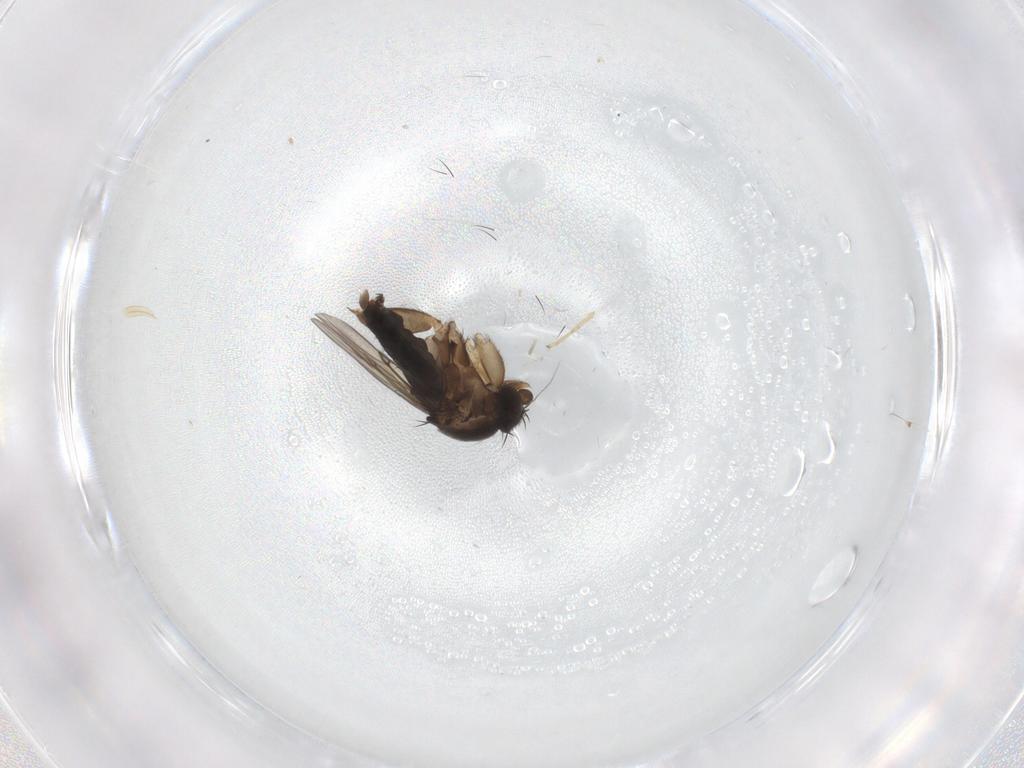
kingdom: Animalia
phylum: Arthropoda
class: Insecta
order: Diptera
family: Phoridae
